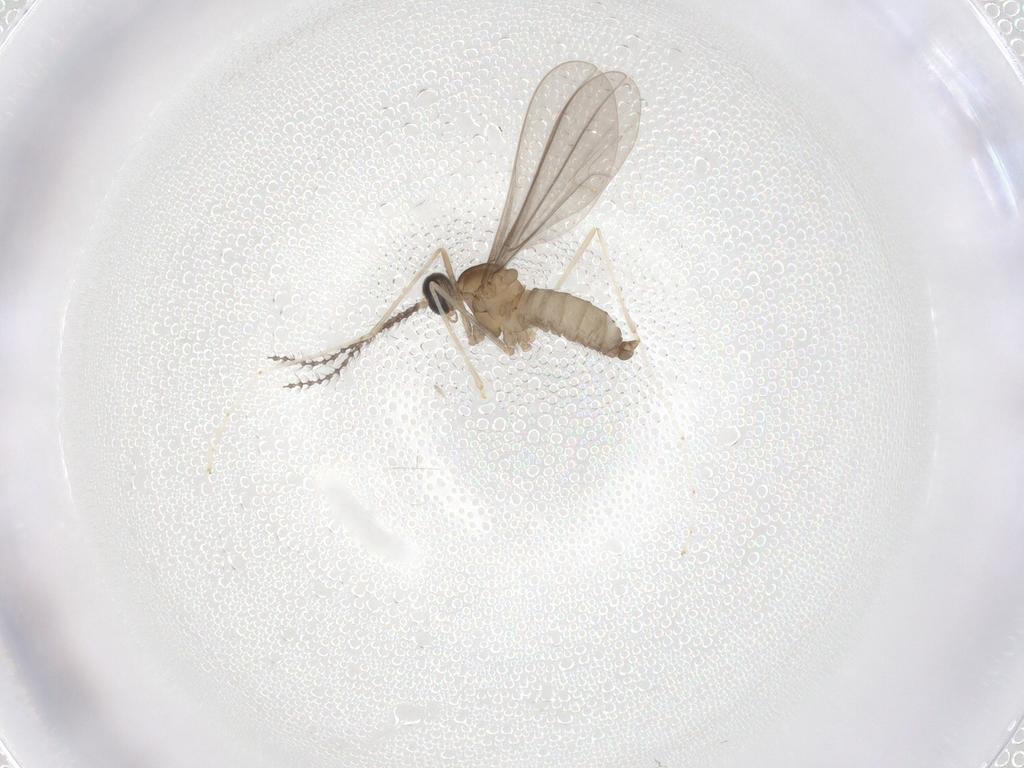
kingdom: Animalia
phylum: Arthropoda
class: Insecta
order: Diptera
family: Cecidomyiidae
